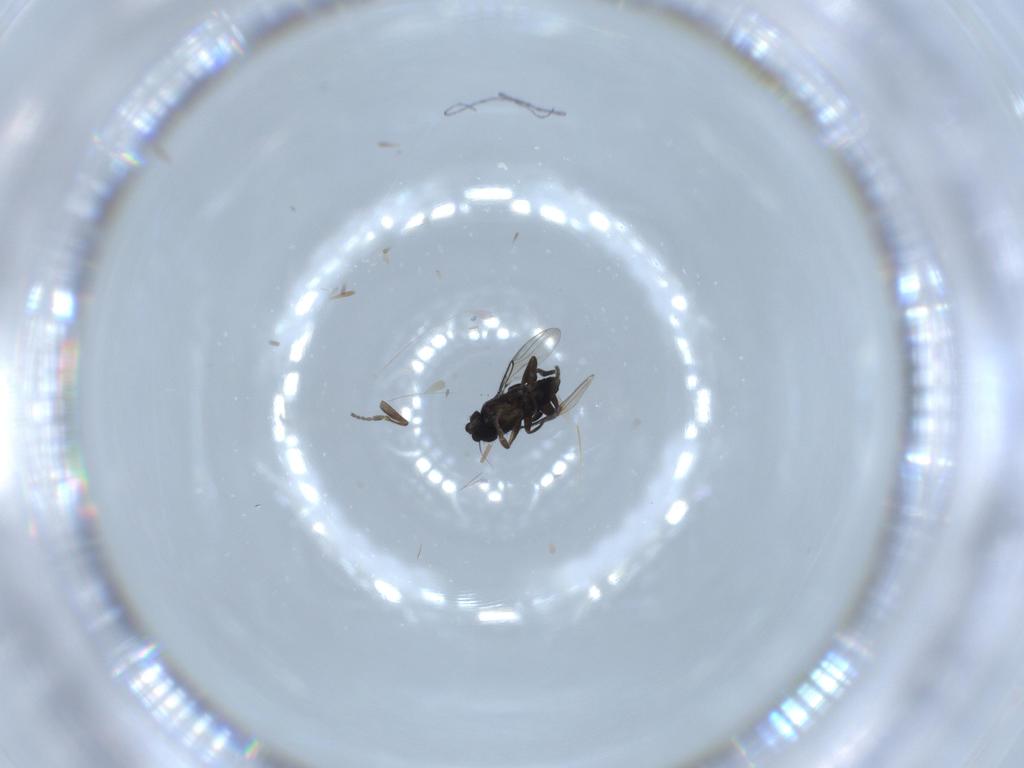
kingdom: Animalia
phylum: Arthropoda
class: Insecta
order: Diptera
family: Phoridae
